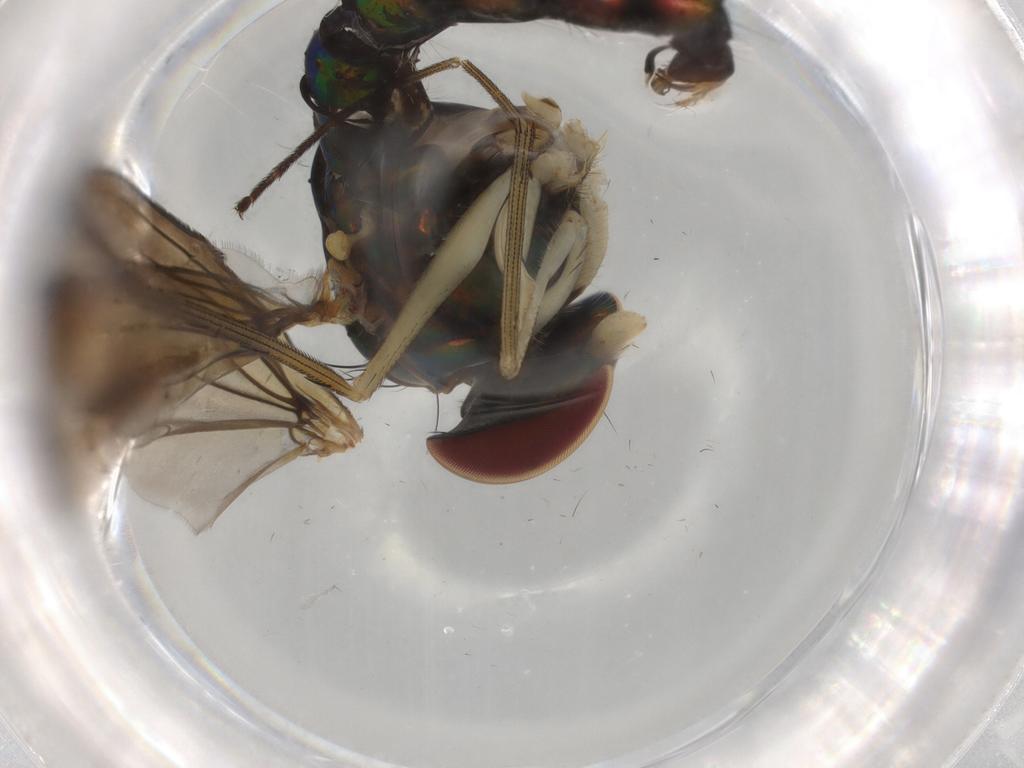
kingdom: Animalia
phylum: Arthropoda
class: Insecta
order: Diptera
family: Dolichopodidae
